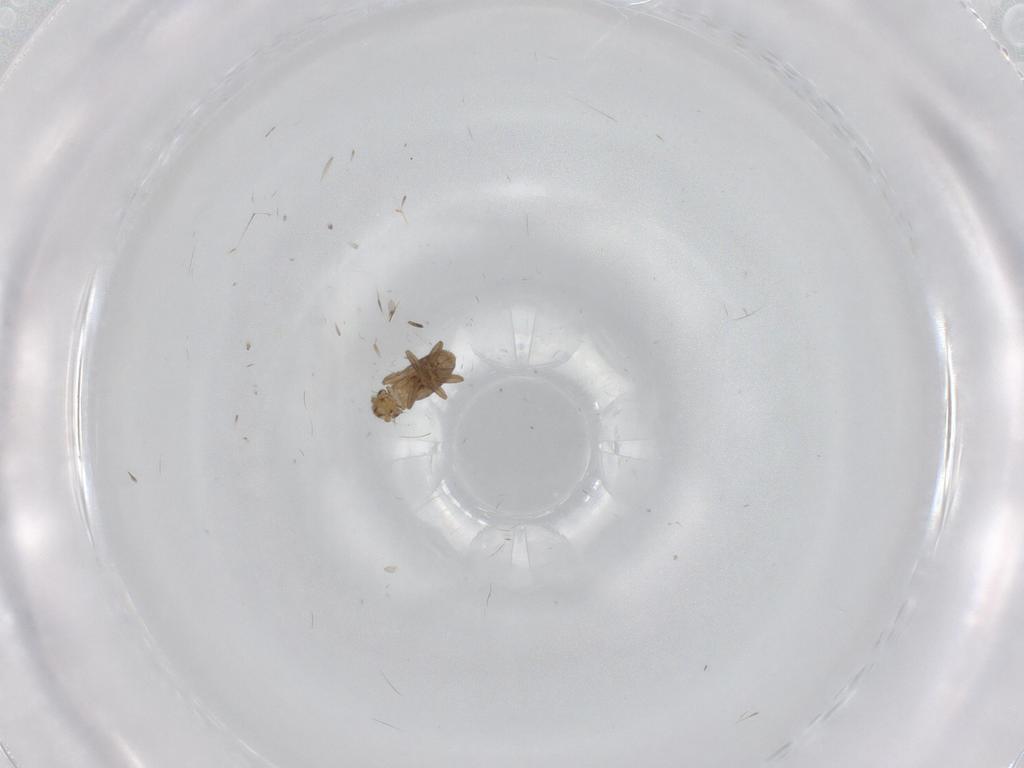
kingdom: Animalia
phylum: Arthropoda
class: Insecta
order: Diptera
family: Cecidomyiidae
